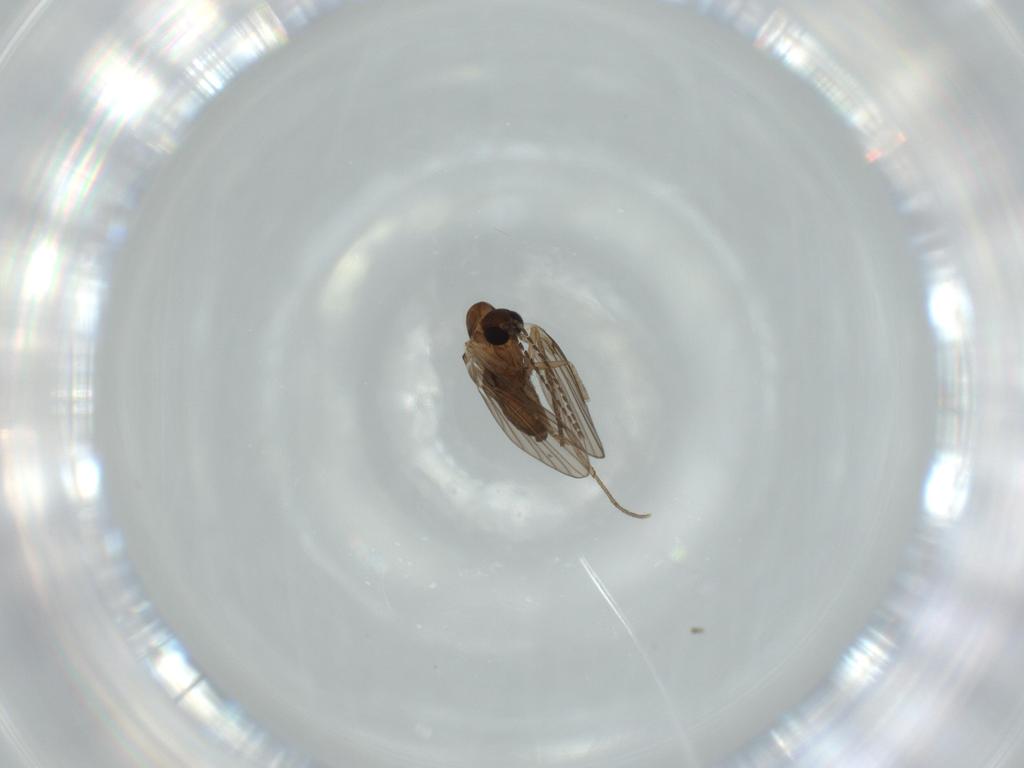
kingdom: Animalia
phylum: Arthropoda
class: Insecta
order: Diptera
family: Psychodidae
